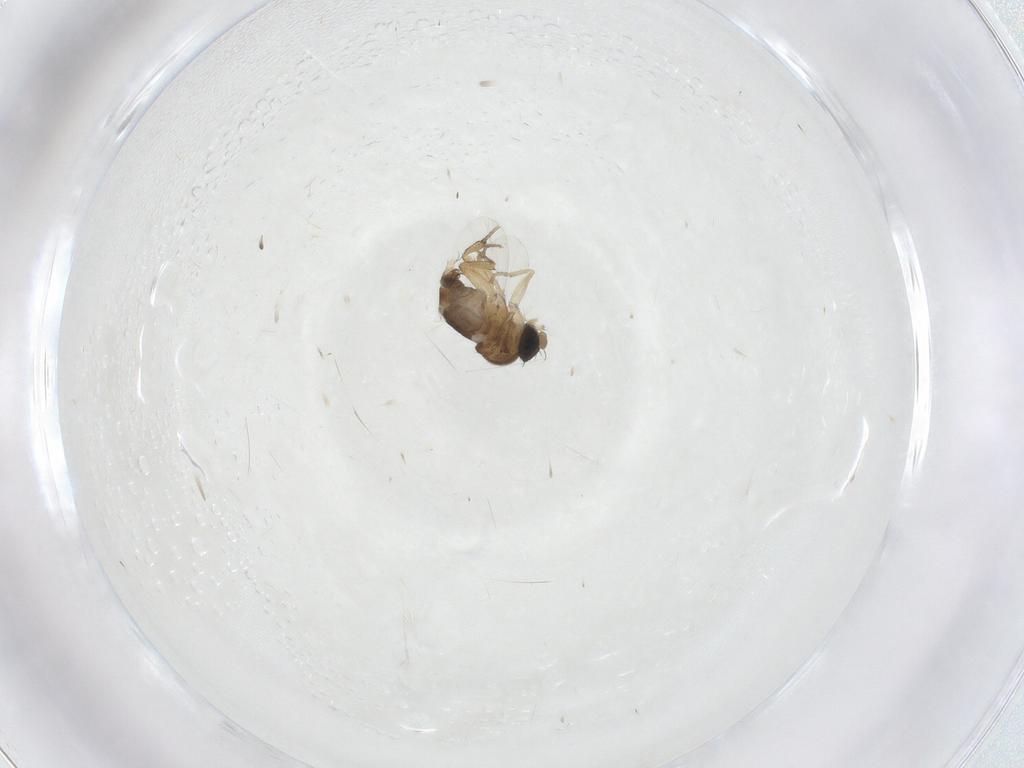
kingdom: Animalia
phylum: Arthropoda
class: Insecta
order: Diptera
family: Phoridae
